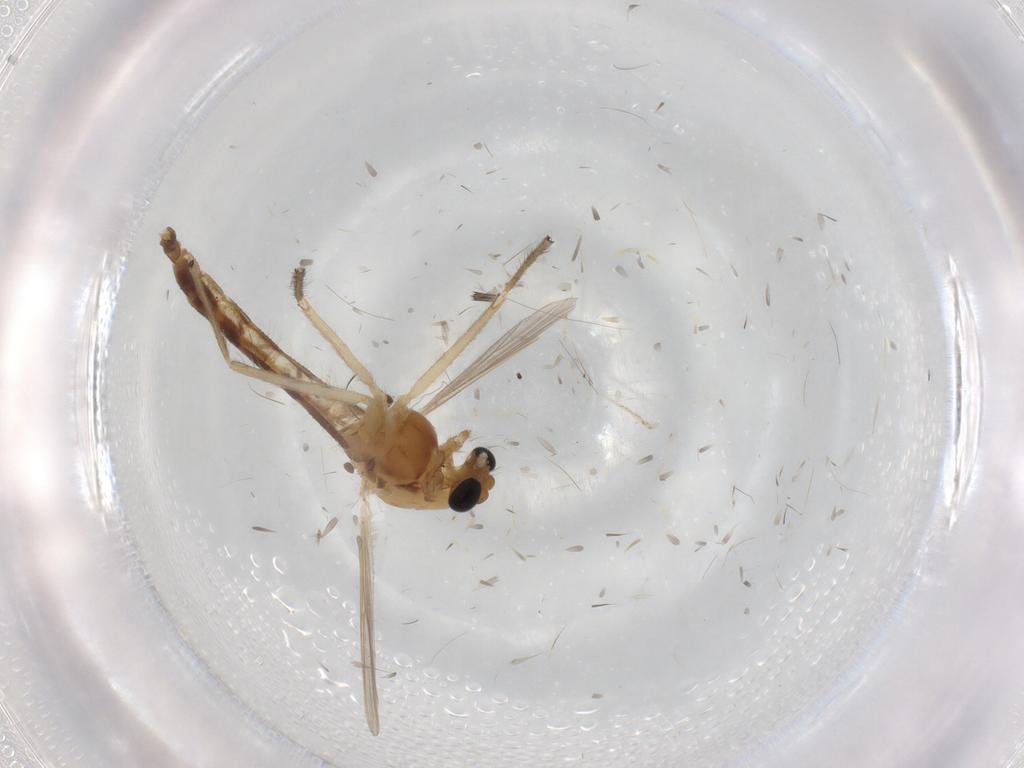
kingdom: Animalia
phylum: Arthropoda
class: Insecta
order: Diptera
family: Chironomidae
